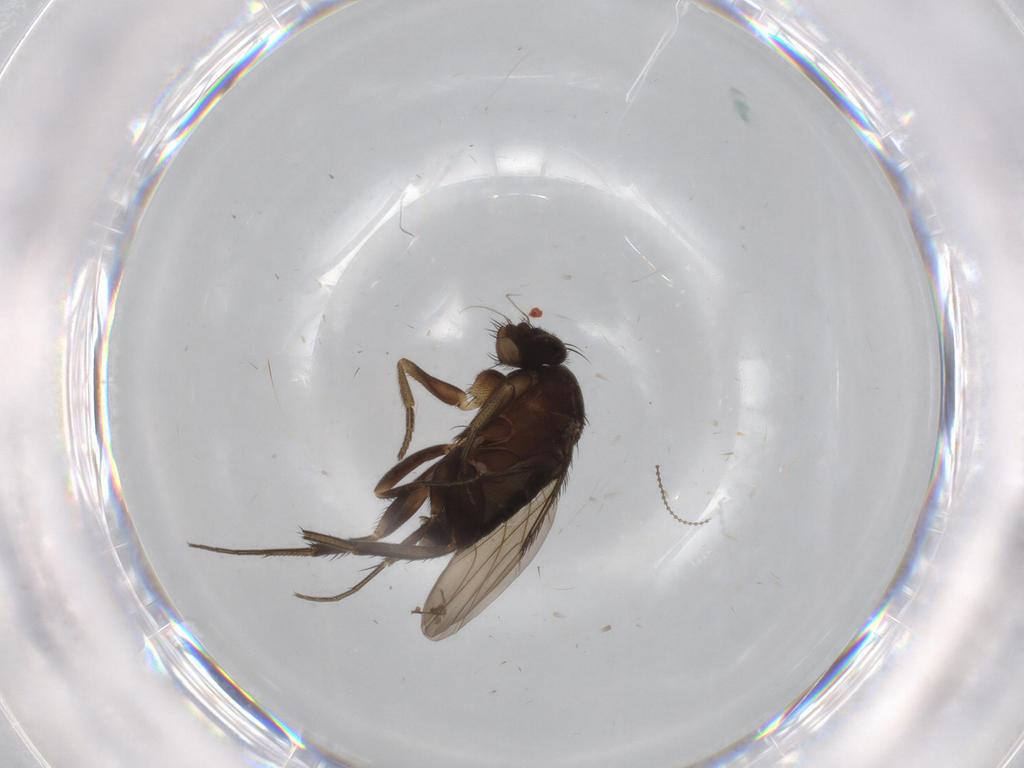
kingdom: Animalia
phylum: Arthropoda
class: Insecta
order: Diptera
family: Phoridae
